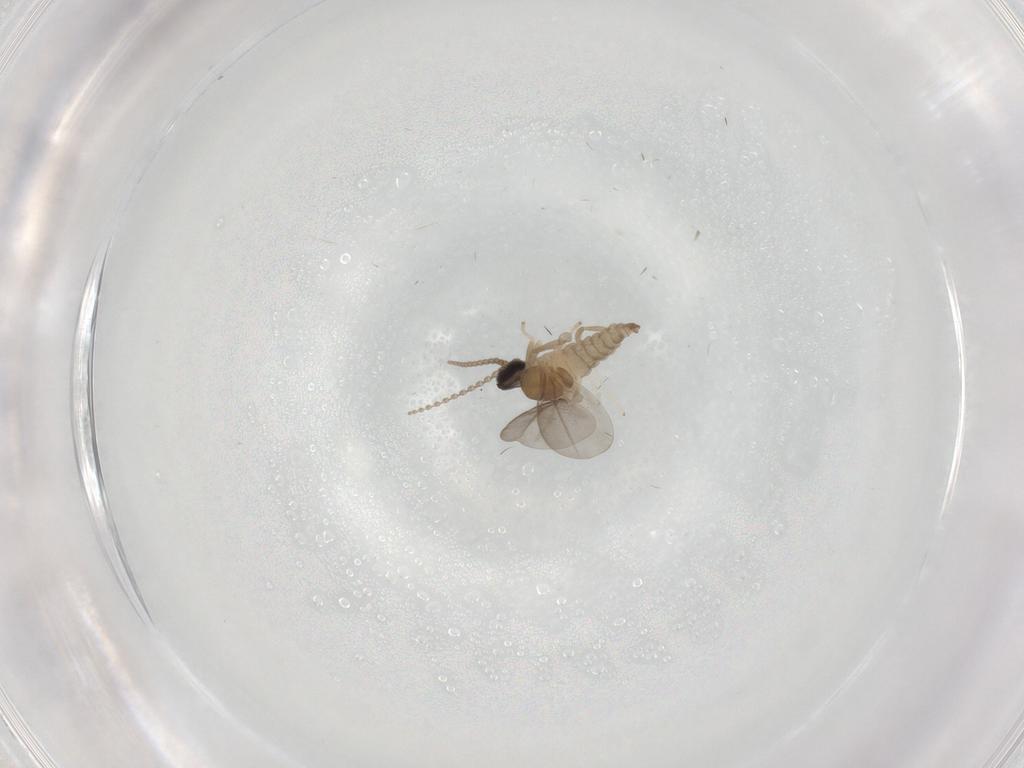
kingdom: Animalia
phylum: Arthropoda
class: Insecta
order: Diptera
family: Cecidomyiidae
